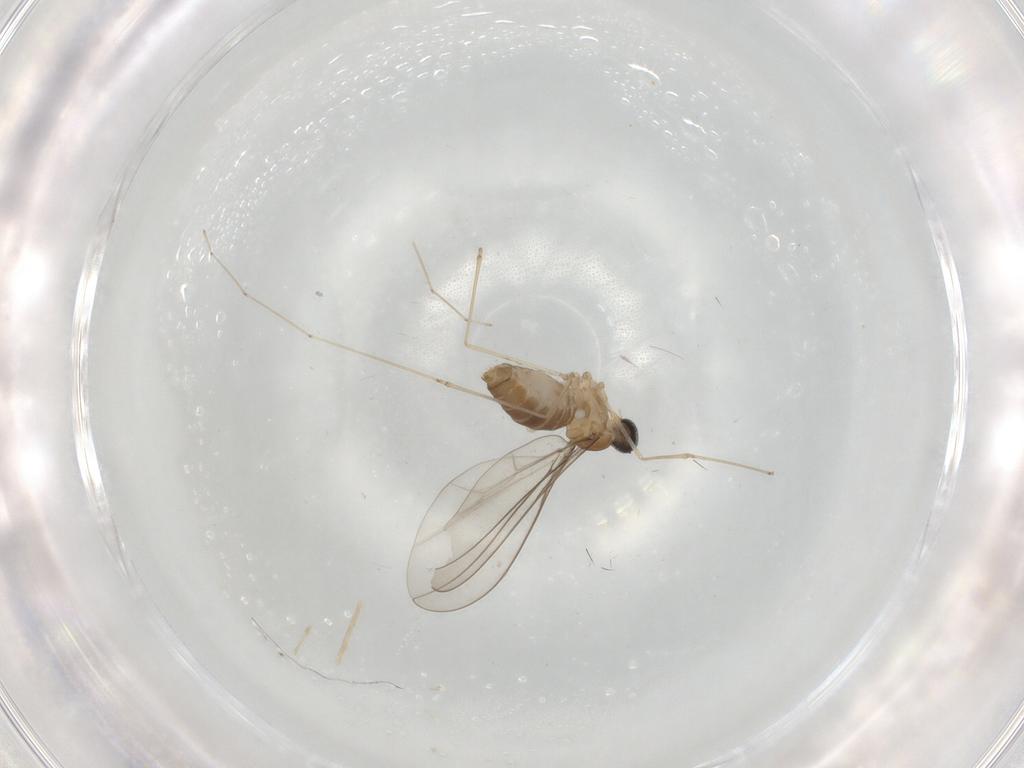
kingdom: Animalia
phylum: Arthropoda
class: Insecta
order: Diptera
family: Cecidomyiidae
